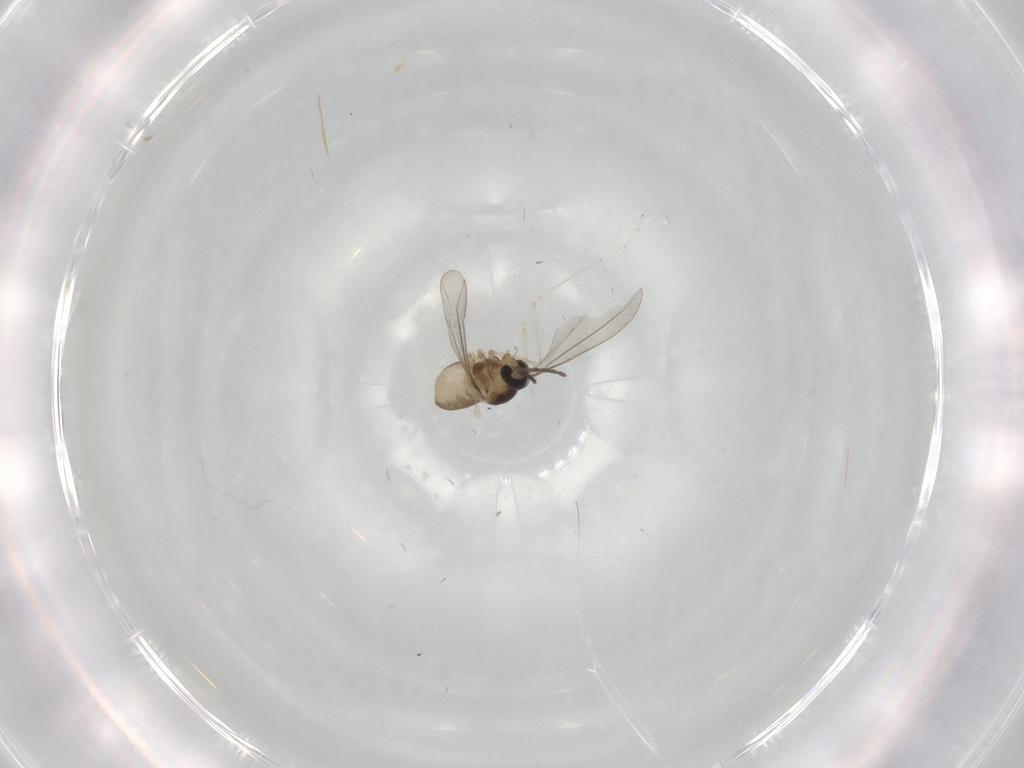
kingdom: Animalia
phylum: Arthropoda
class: Insecta
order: Diptera
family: Cecidomyiidae
